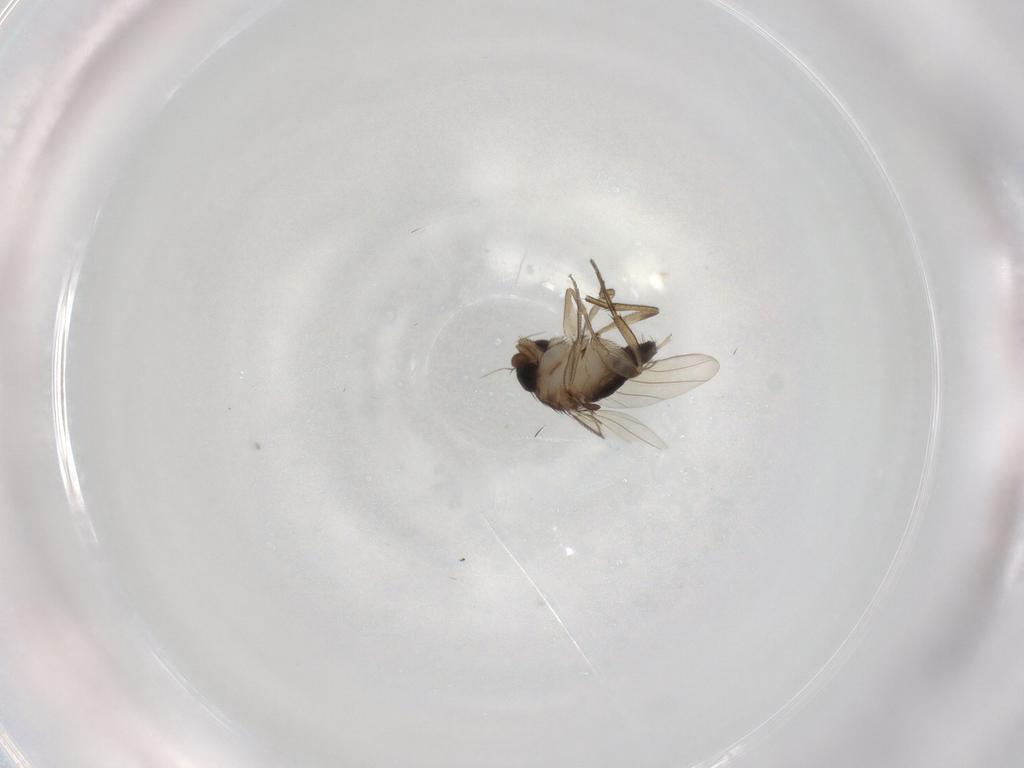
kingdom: Animalia
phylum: Arthropoda
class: Insecta
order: Diptera
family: Phoridae
